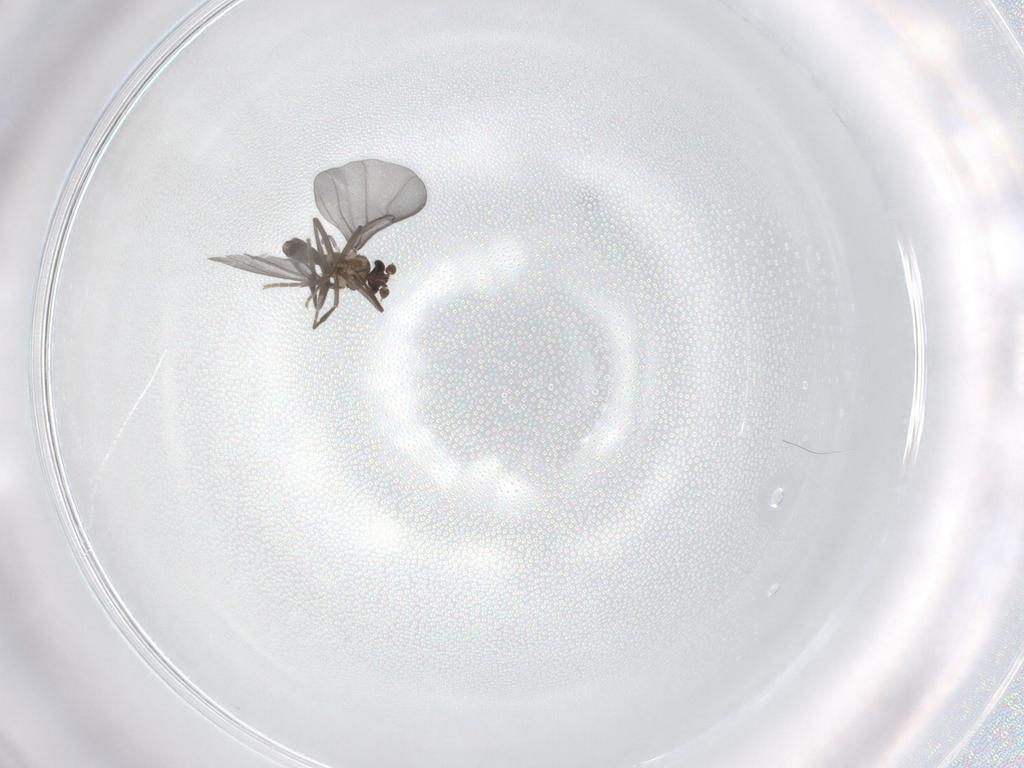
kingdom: Animalia
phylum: Arthropoda
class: Insecta
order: Diptera
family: Phoridae
